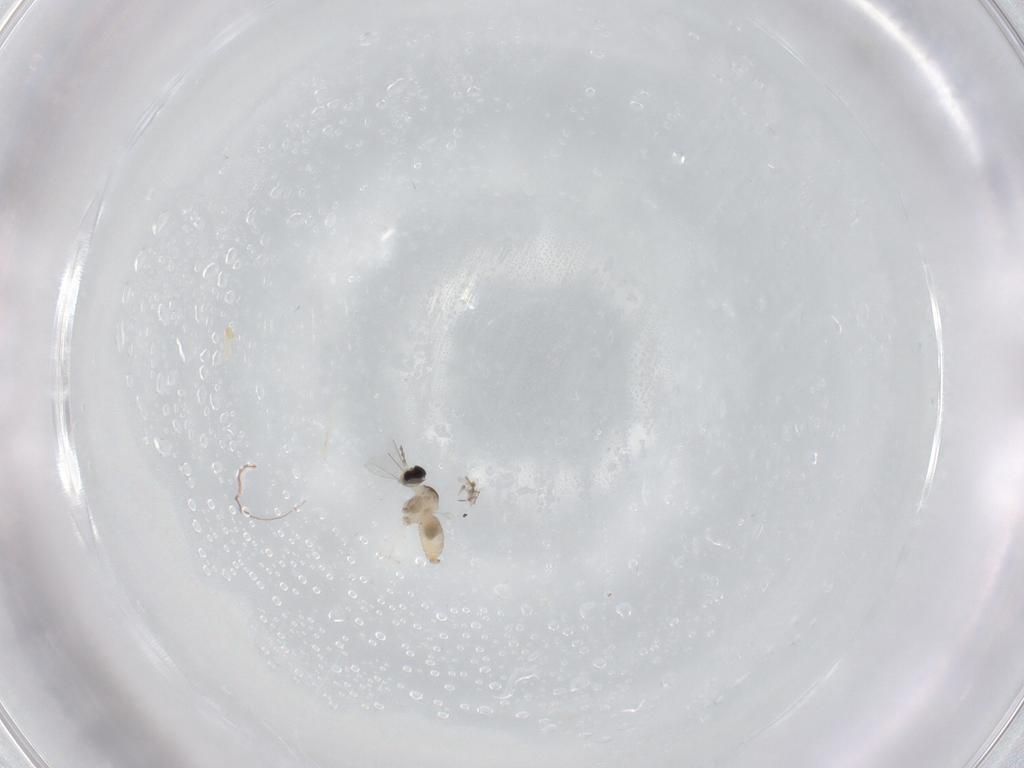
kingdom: Animalia
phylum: Arthropoda
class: Insecta
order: Diptera
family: Cecidomyiidae
